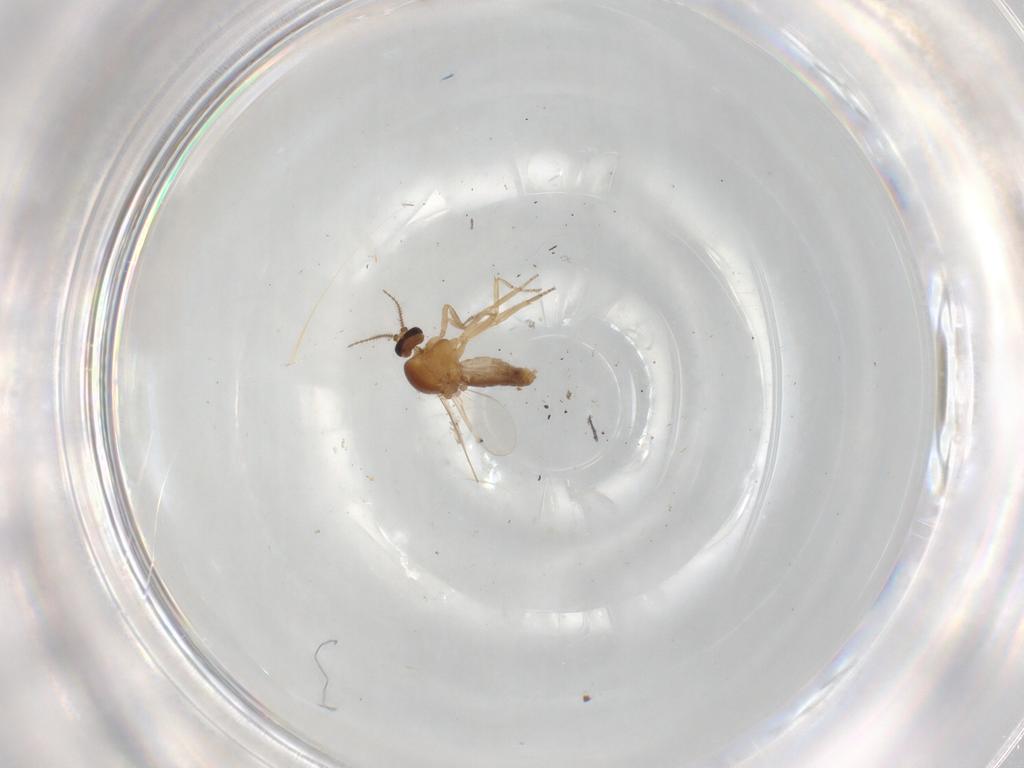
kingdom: Animalia
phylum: Arthropoda
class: Insecta
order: Diptera
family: Ceratopogonidae
